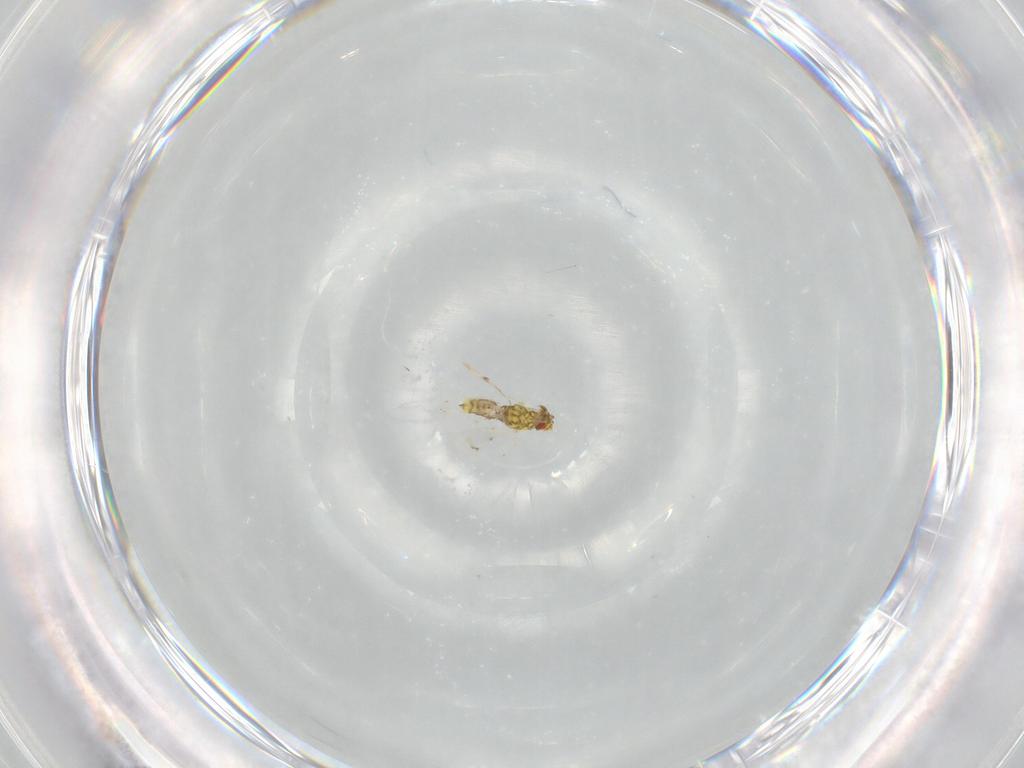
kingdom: Animalia
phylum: Arthropoda
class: Insecta
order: Hymenoptera
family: Eulophidae
